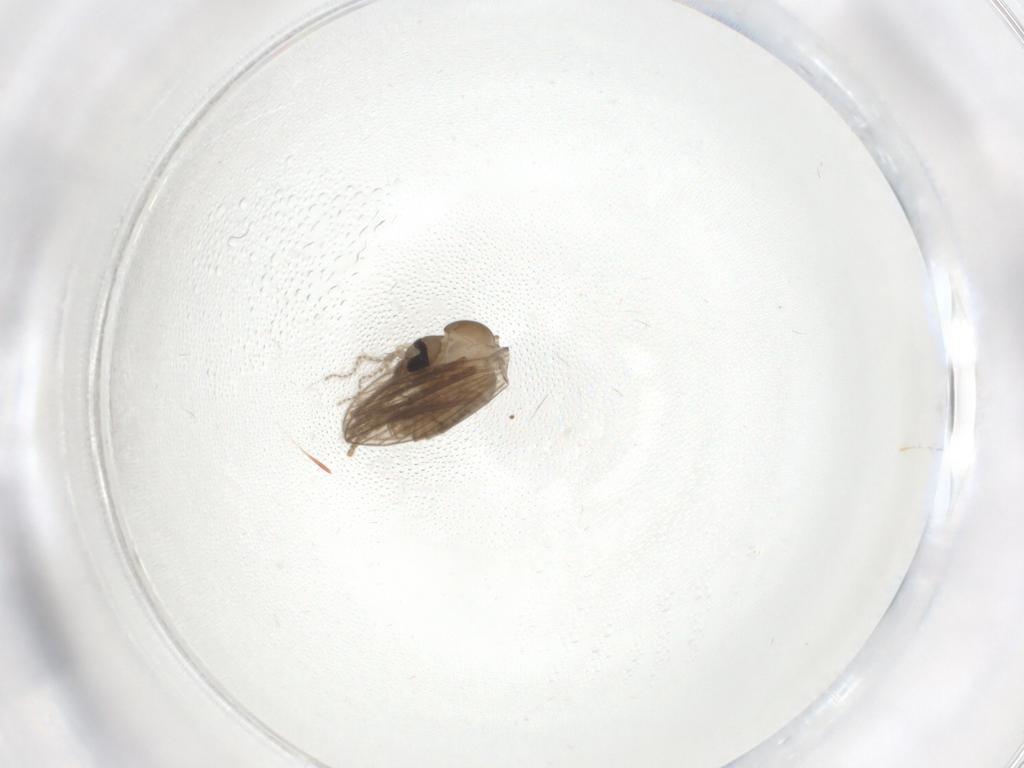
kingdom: Animalia
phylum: Arthropoda
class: Insecta
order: Diptera
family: Psychodidae
